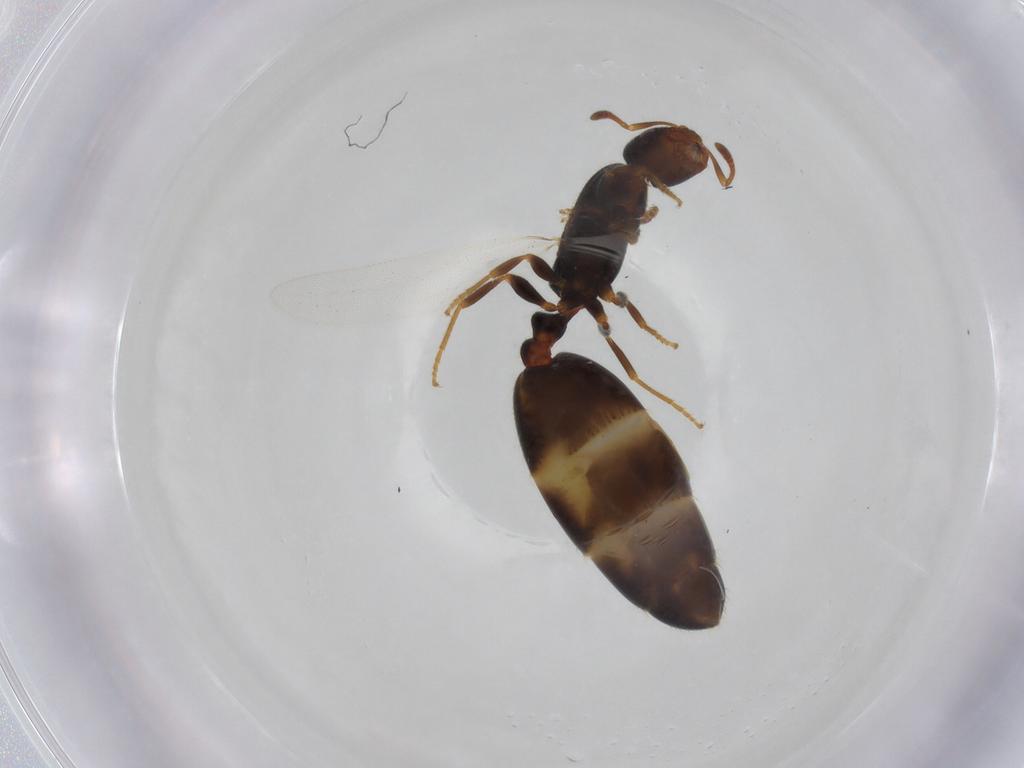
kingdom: Animalia
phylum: Arthropoda
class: Insecta
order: Hymenoptera
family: Formicidae
